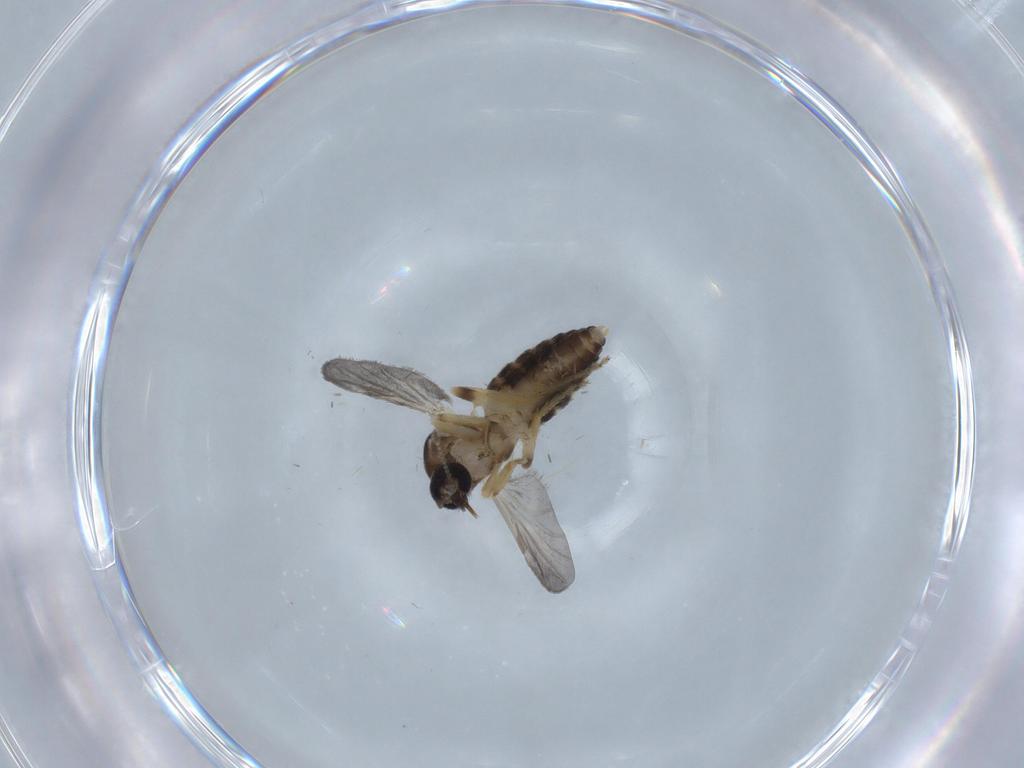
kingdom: Animalia
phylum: Arthropoda
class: Insecta
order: Diptera
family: Ceratopogonidae
